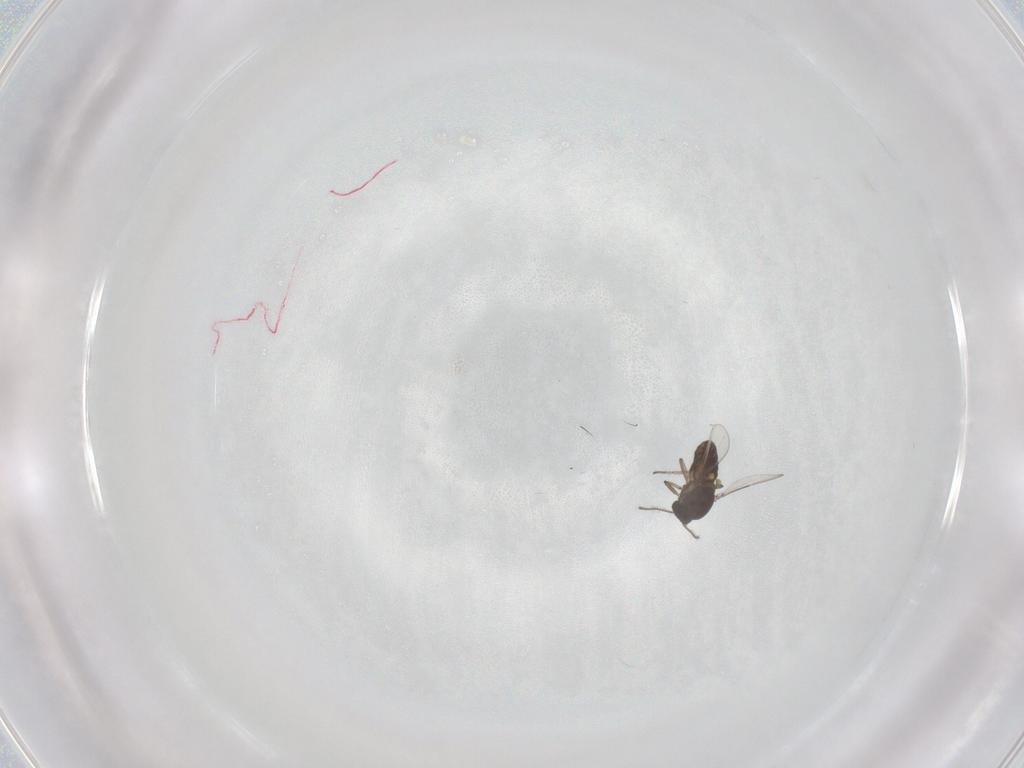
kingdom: Animalia
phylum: Arthropoda
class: Insecta
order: Diptera
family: Ceratopogonidae
